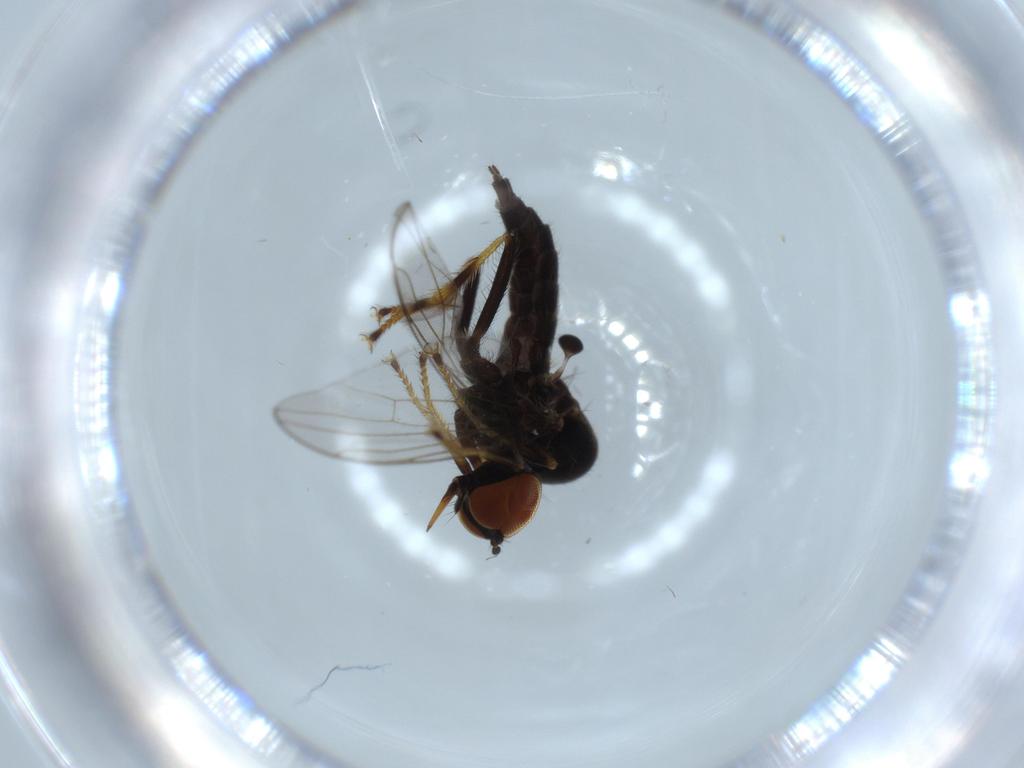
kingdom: Animalia
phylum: Arthropoda
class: Insecta
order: Diptera
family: Hybotidae
